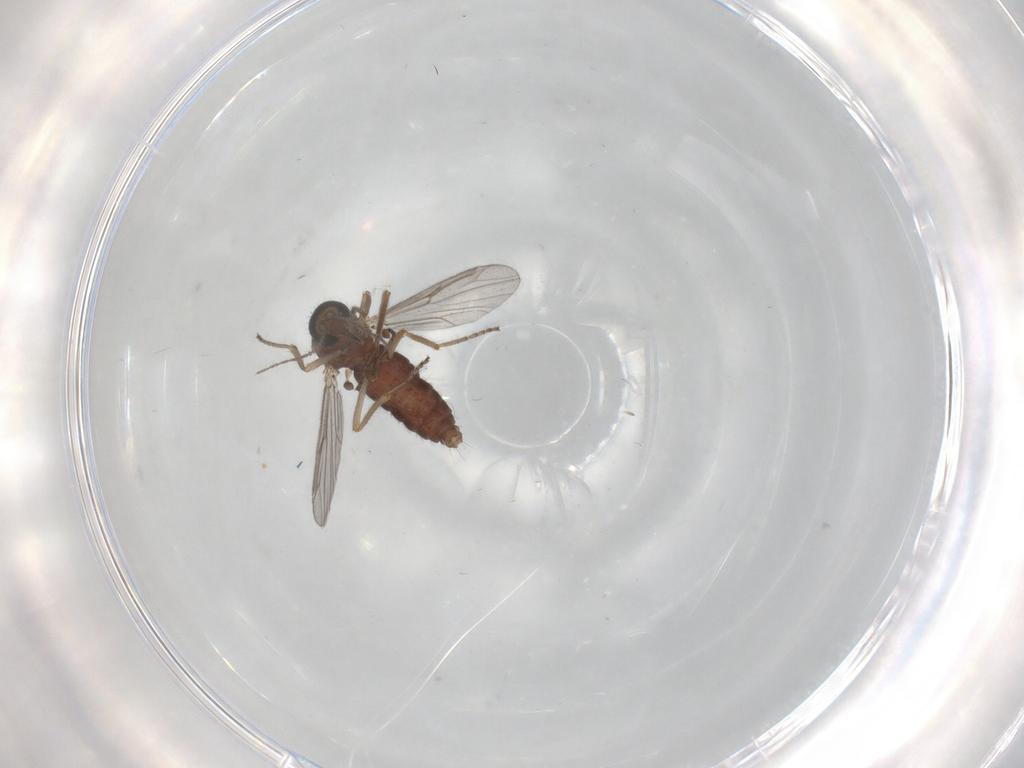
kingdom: Animalia
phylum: Arthropoda
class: Insecta
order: Diptera
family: Ceratopogonidae
